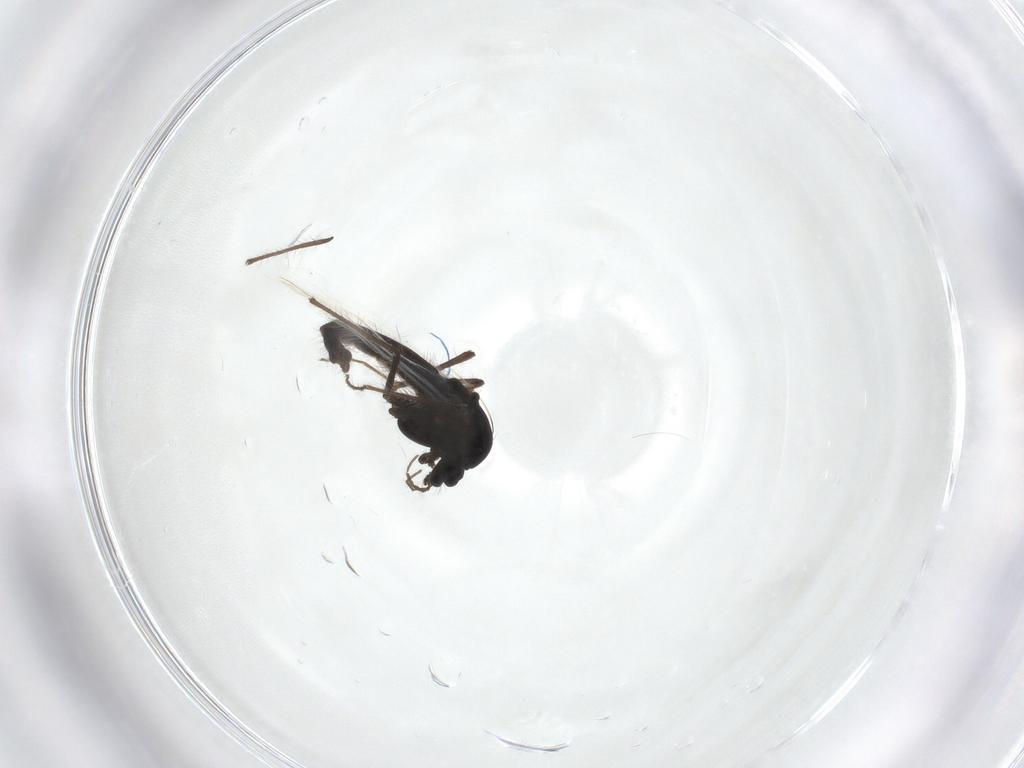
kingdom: Animalia
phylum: Arthropoda
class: Insecta
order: Diptera
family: Chironomidae
